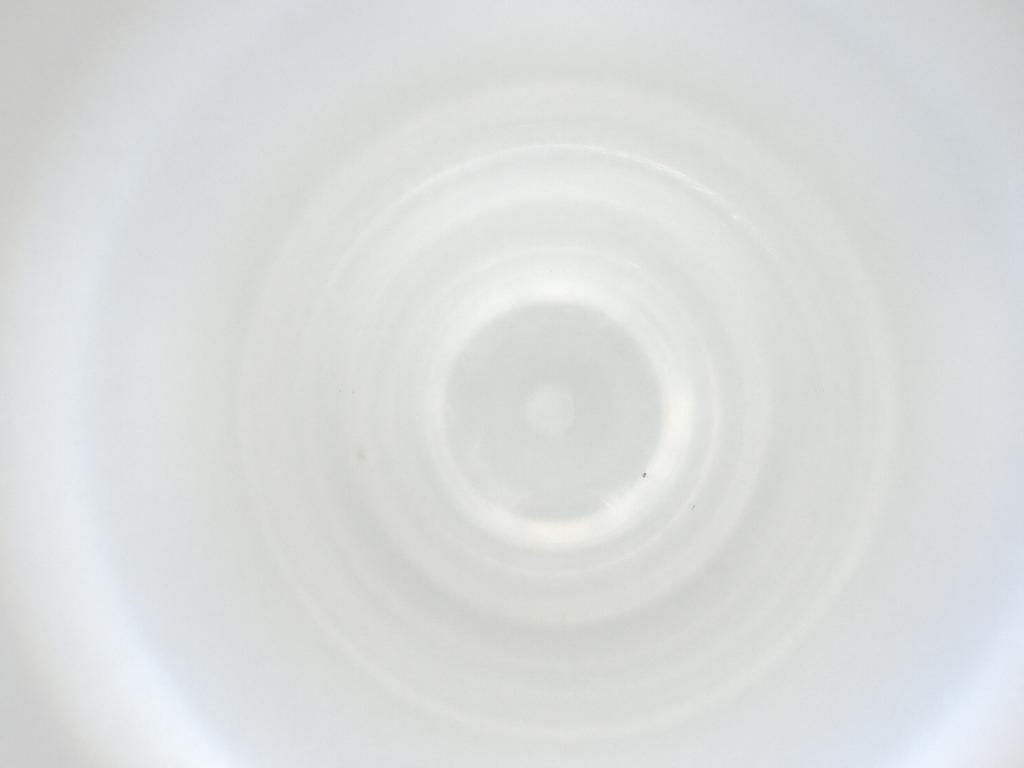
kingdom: Animalia
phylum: Arthropoda
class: Insecta
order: Diptera
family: Cecidomyiidae
